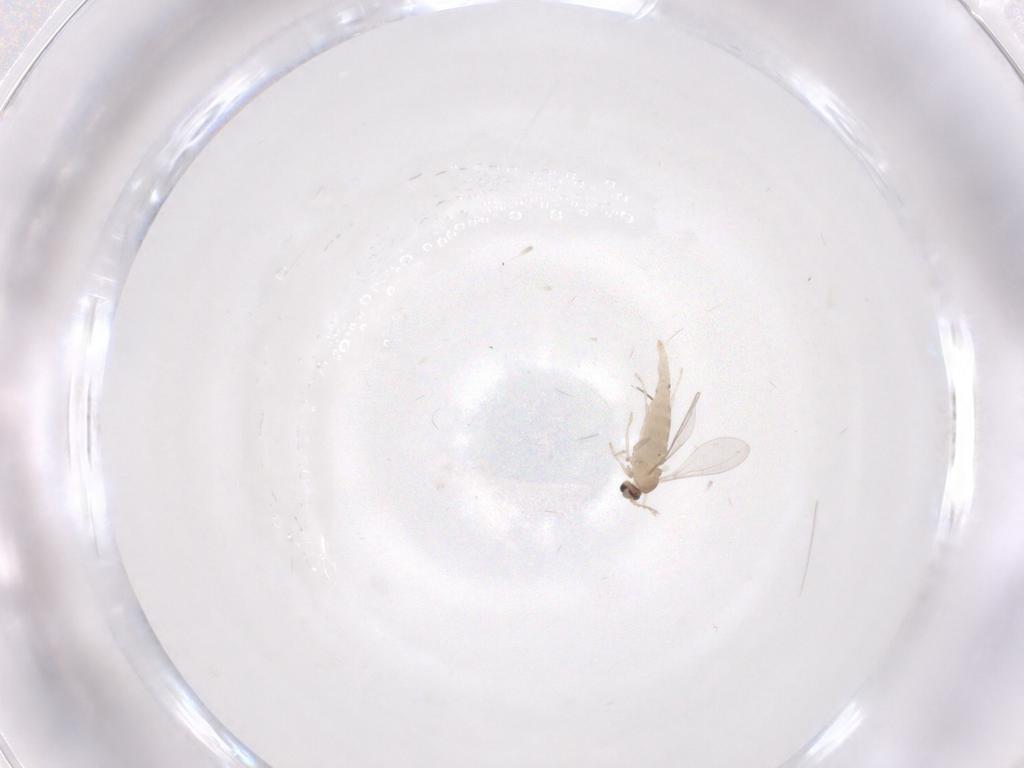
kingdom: Animalia
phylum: Arthropoda
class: Insecta
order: Diptera
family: Cecidomyiidae
